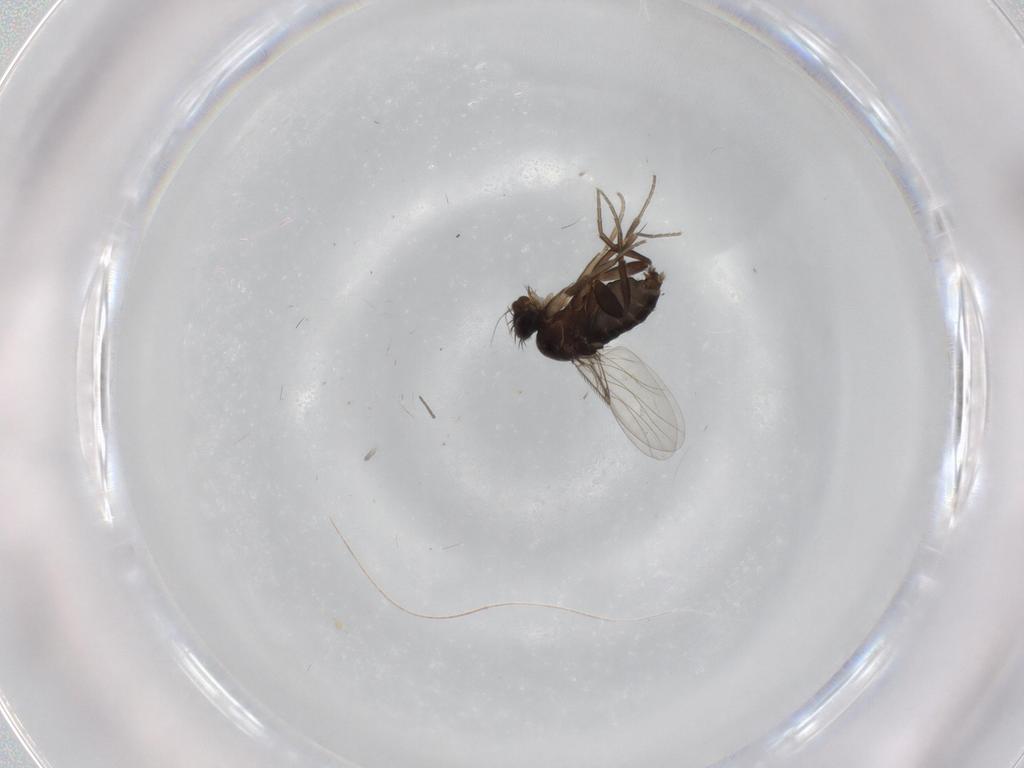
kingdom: Animalia
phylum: Arthropoda
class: Insecta
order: Diptera
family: Phoridae
